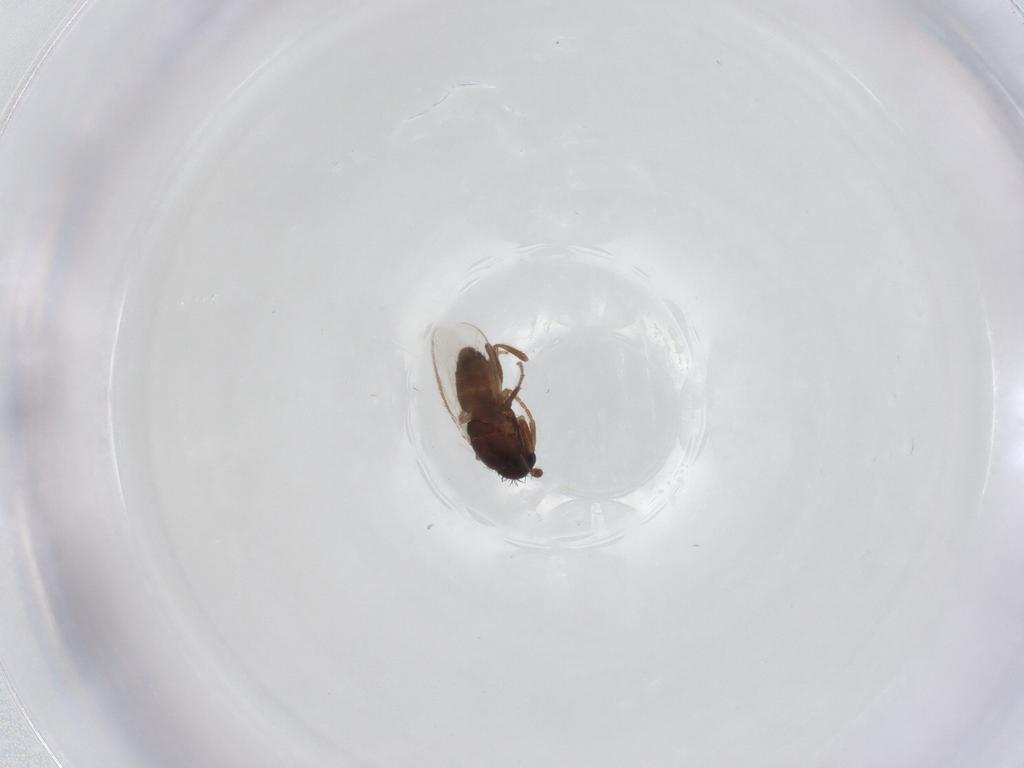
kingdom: Animalia
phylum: Arthropoda
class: Insecta
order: Diptera
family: Sphaeroceridae
